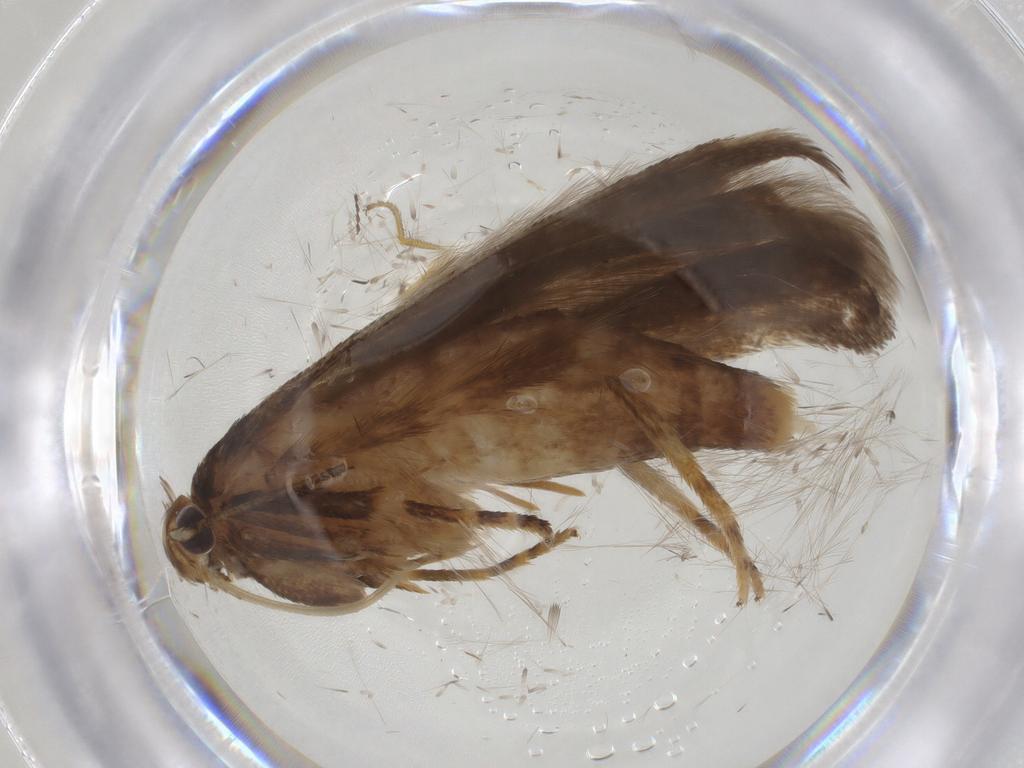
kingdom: Animalia
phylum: Arthropoda
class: Insecta
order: Lepidoptera
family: Gelechiidae
